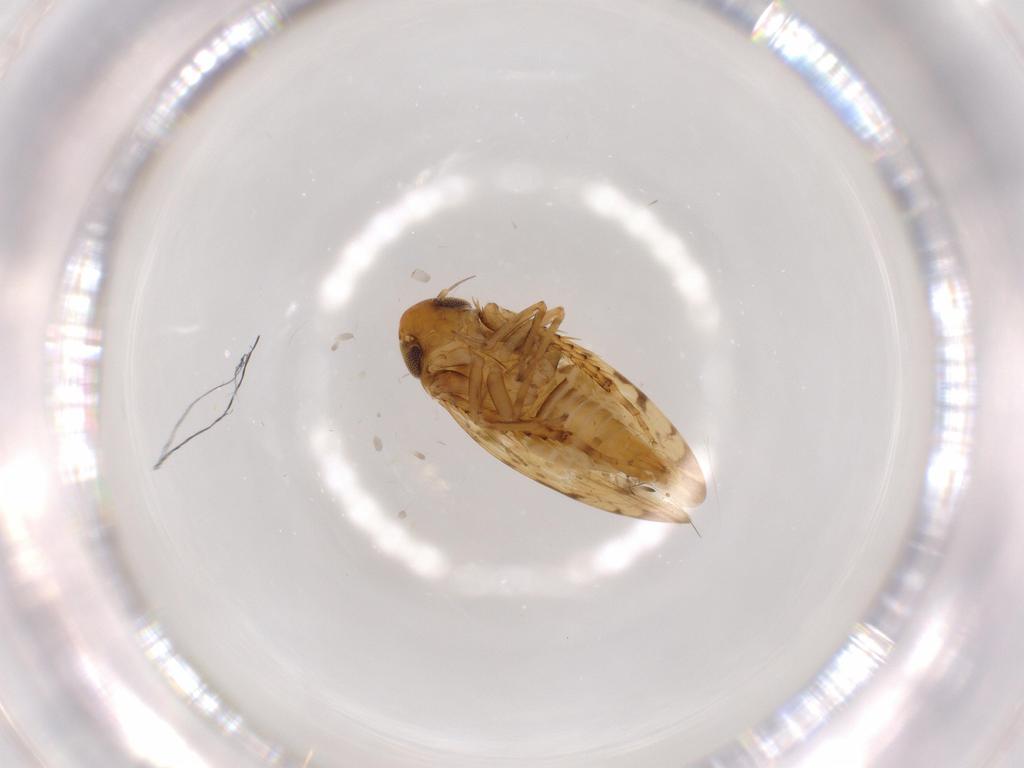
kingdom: Animalia
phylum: Arthropoda
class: Insecta
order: Hemiptera
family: Cicadellidae
